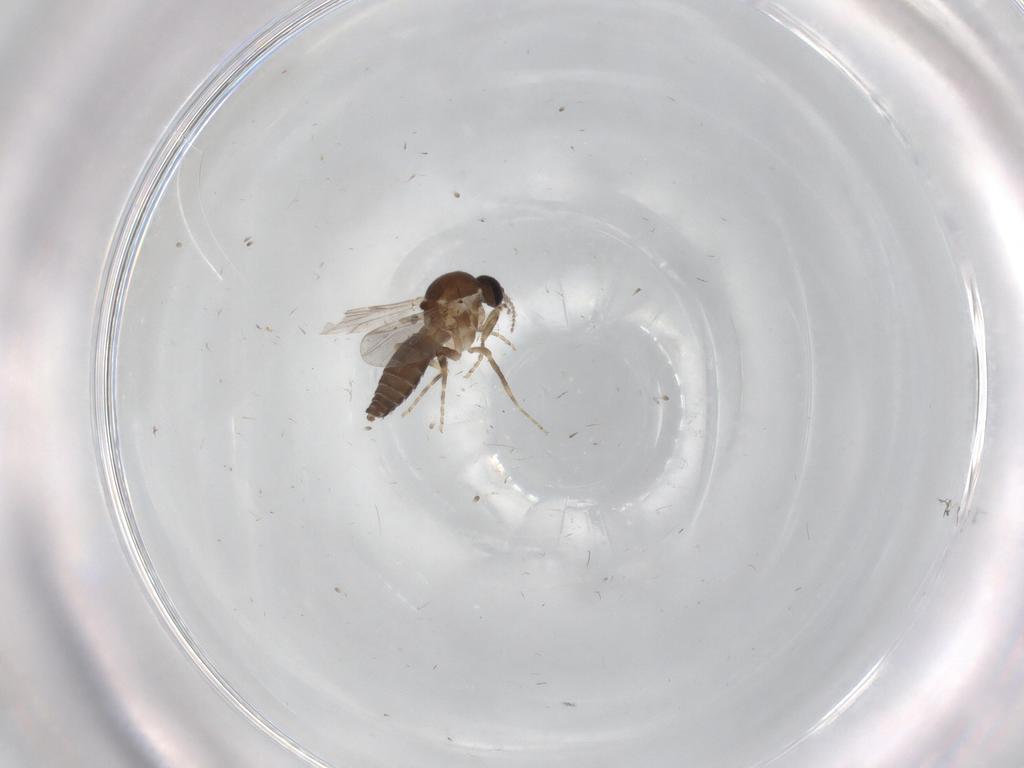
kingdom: Animalia
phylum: Arthropoda
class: Insecta
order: Diptera
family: Ceratopogonidae
